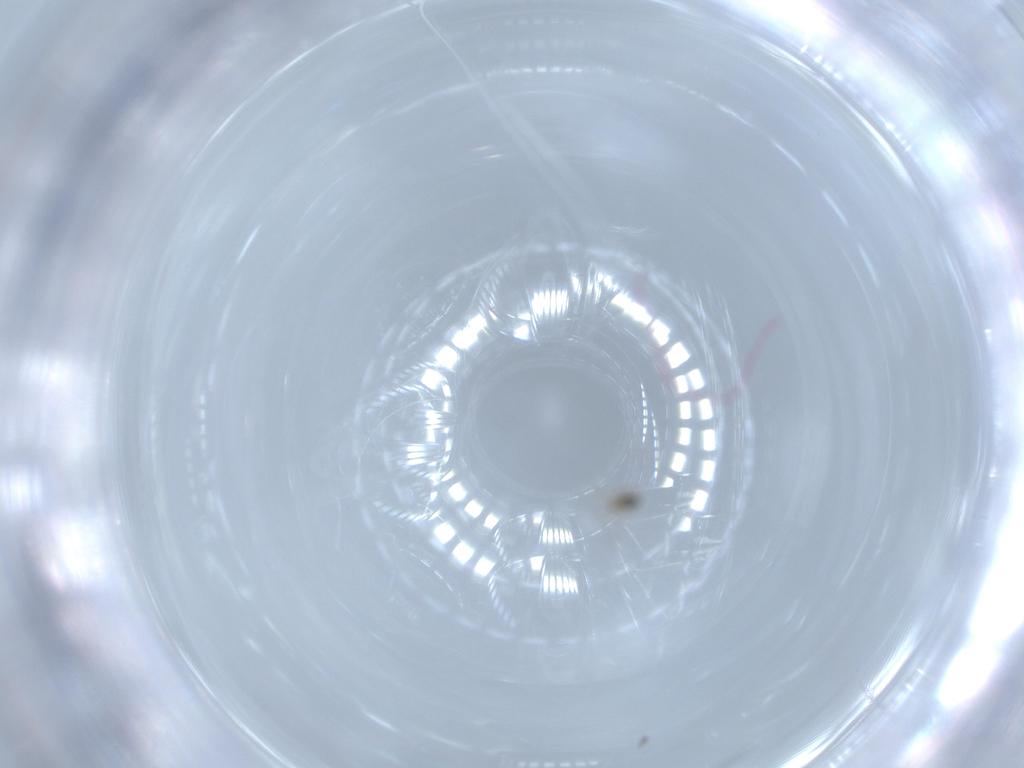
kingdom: Animalia
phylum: Arthropoda
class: Insecta
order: Hymenoptera
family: Mymaridae
